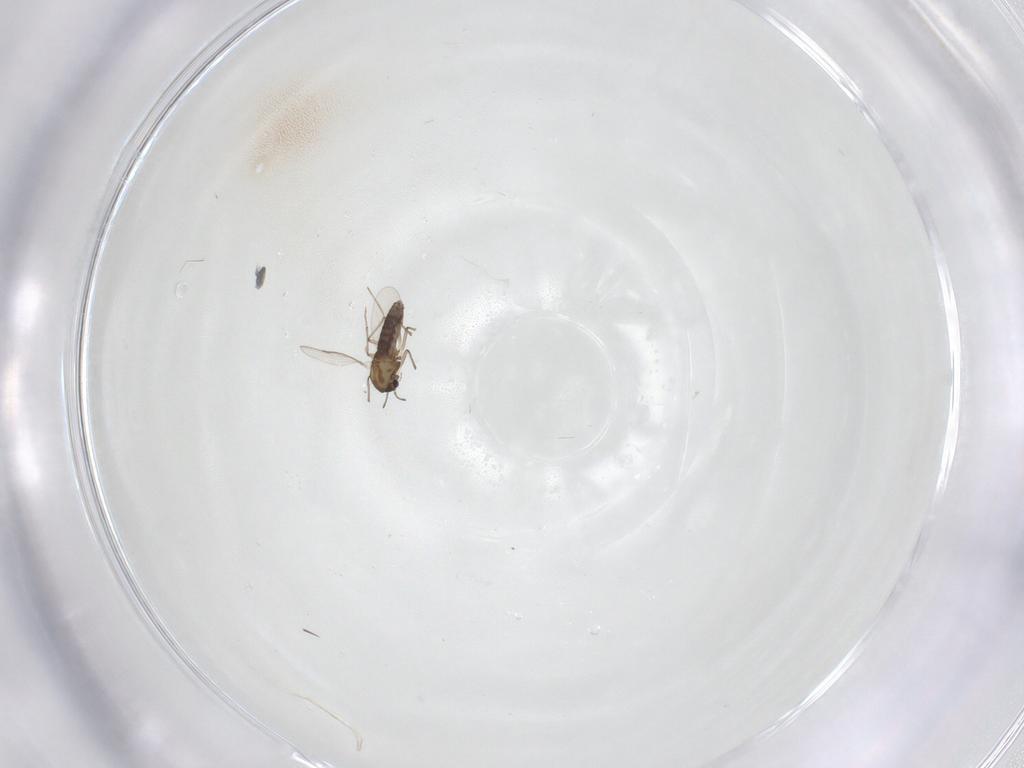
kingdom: Animalia
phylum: Arthropoda
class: Insecta
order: Diptera
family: Chironomidae
